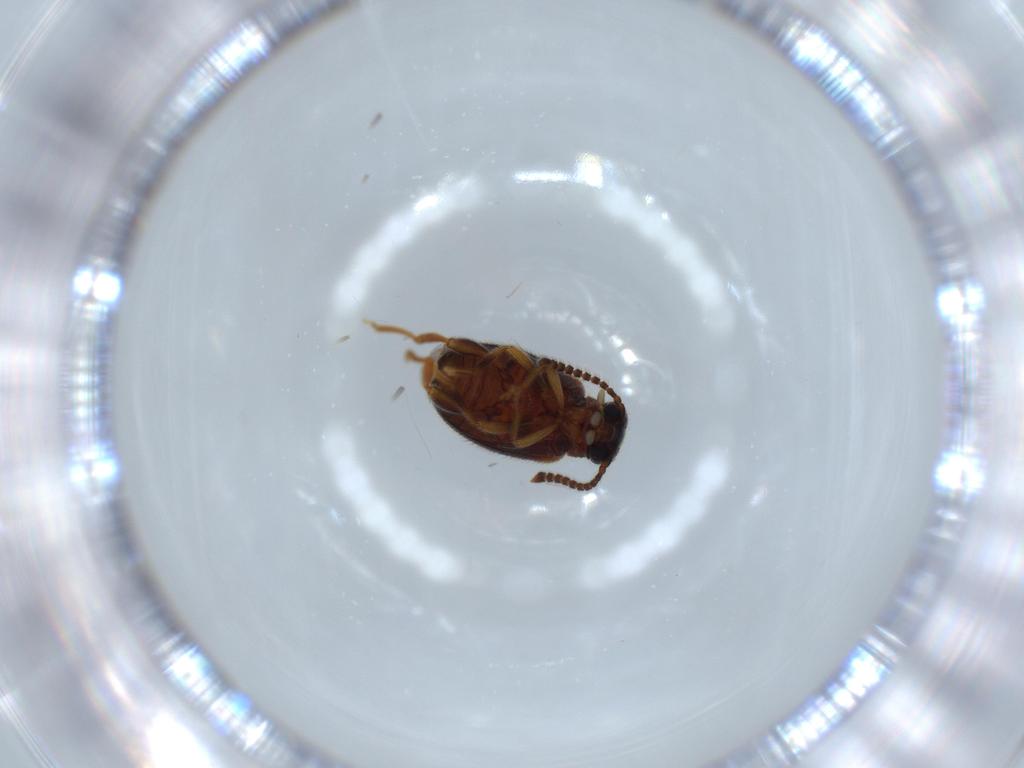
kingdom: Animalia
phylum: Arthropoda
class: Insecta
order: Coleoptera
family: Aderidae
